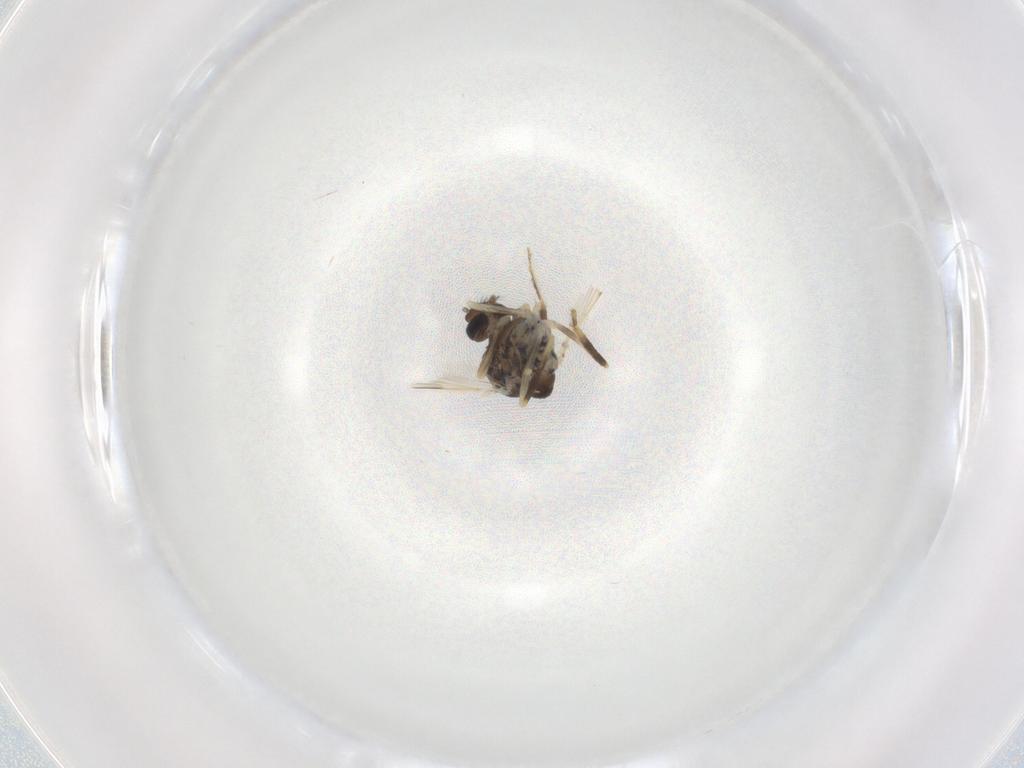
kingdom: Animalia
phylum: Arthropoda
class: Insecta
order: Diptera
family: Ceratopogonidae
